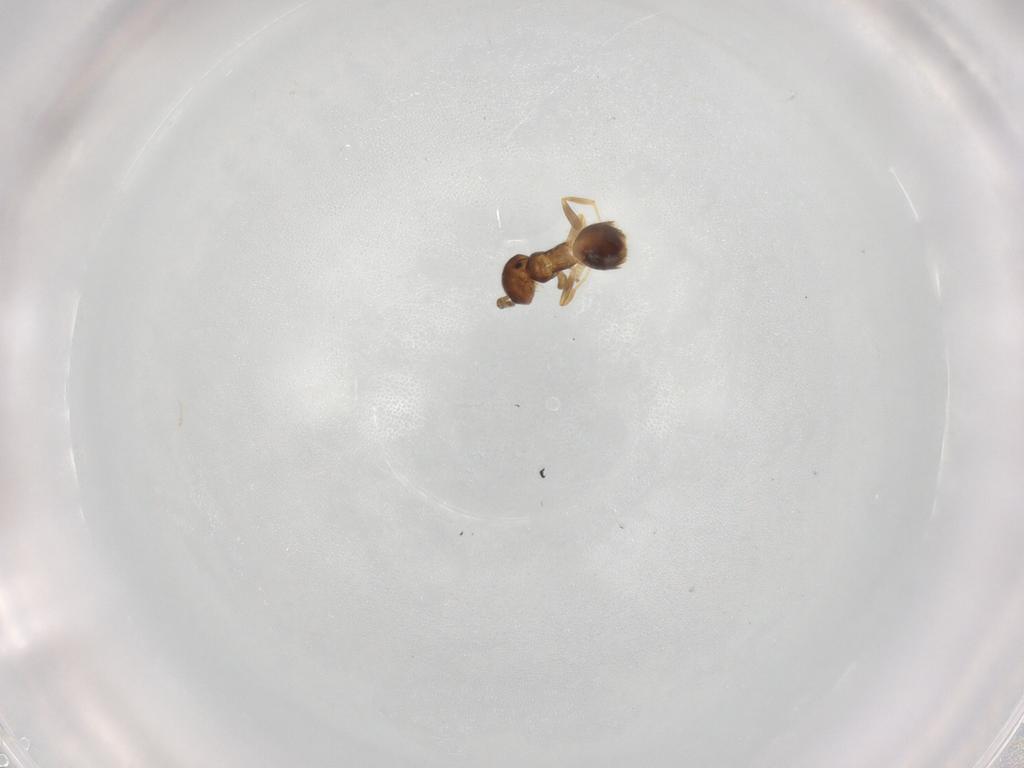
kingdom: Animalia
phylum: Arthropoda
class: Insecta
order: Hymenoptera
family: Formicidae
